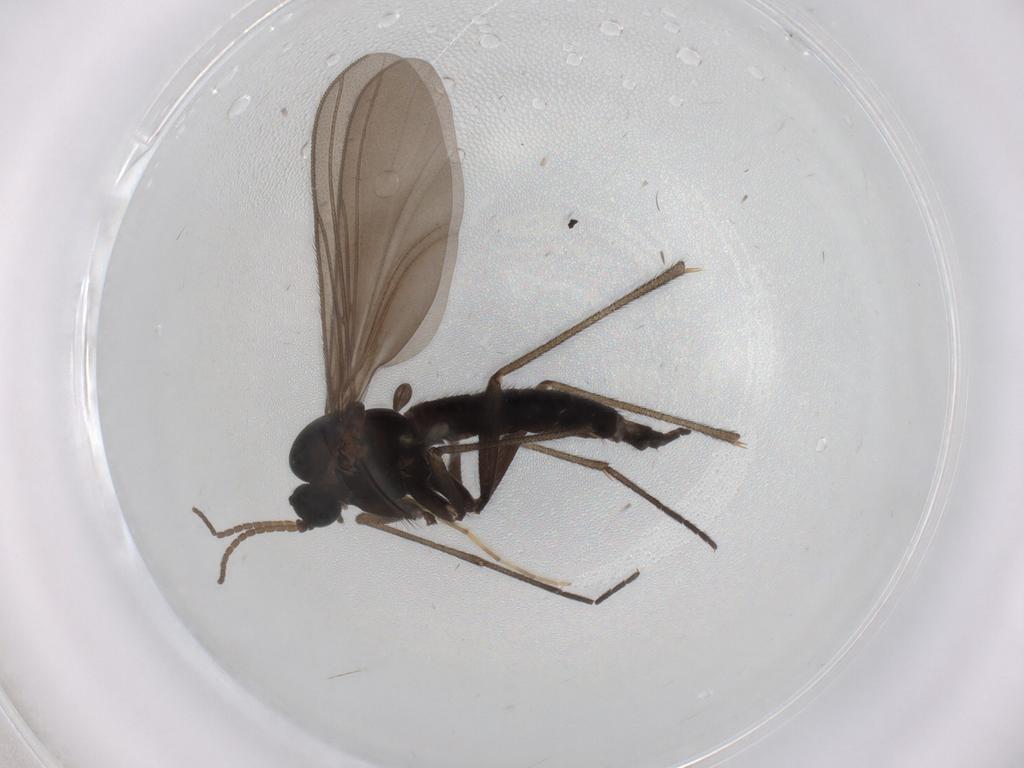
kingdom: Animalia
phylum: Arthropoda
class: Insecta
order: Diptera
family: Sciaridae
